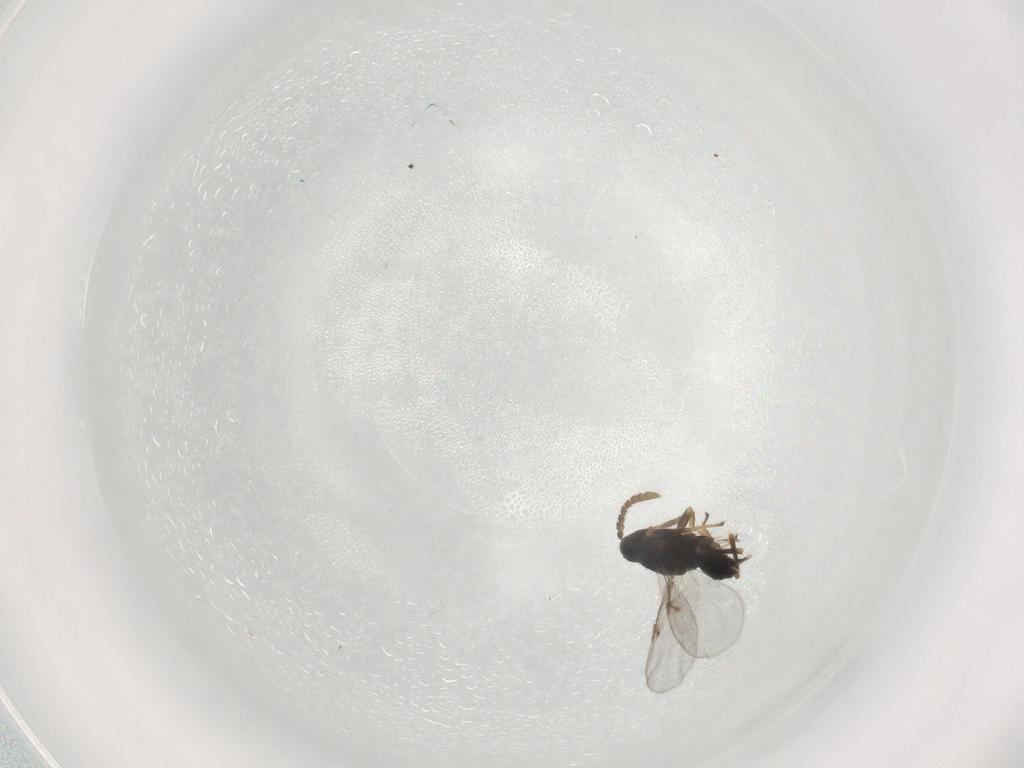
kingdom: Animalia
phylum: Arthropoda
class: Insecta
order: Hymenoptera
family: Aphelinidae
